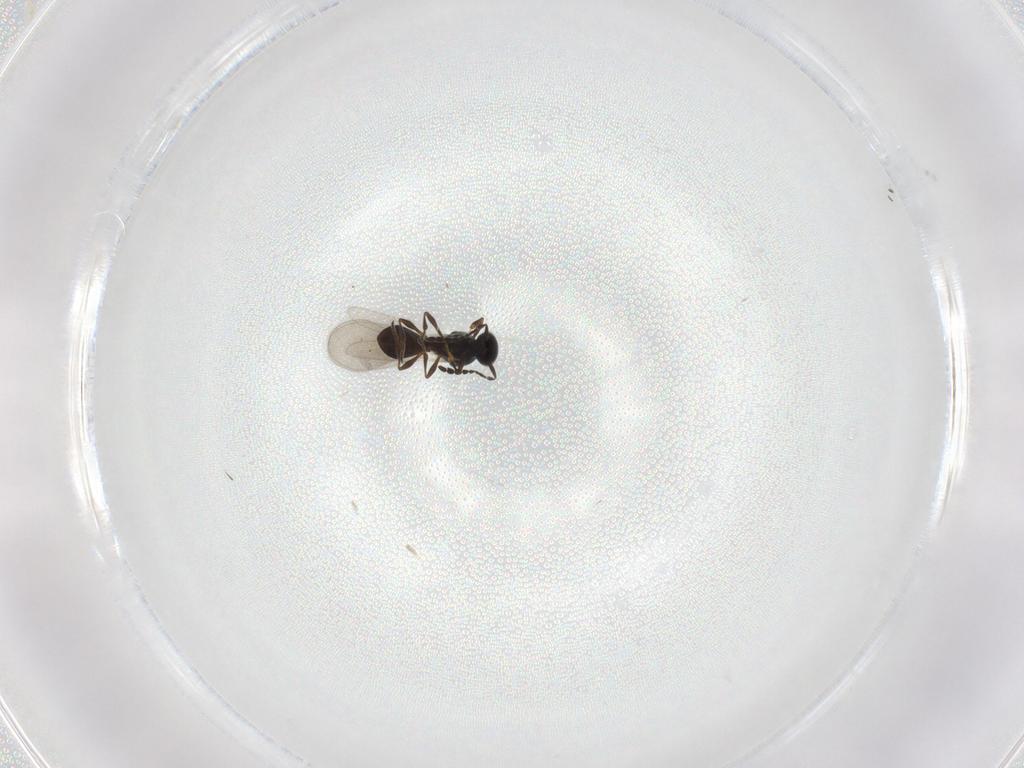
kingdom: Animalia
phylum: Arthropoda
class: Insecta
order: Hymenoptera
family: Platygastridae
